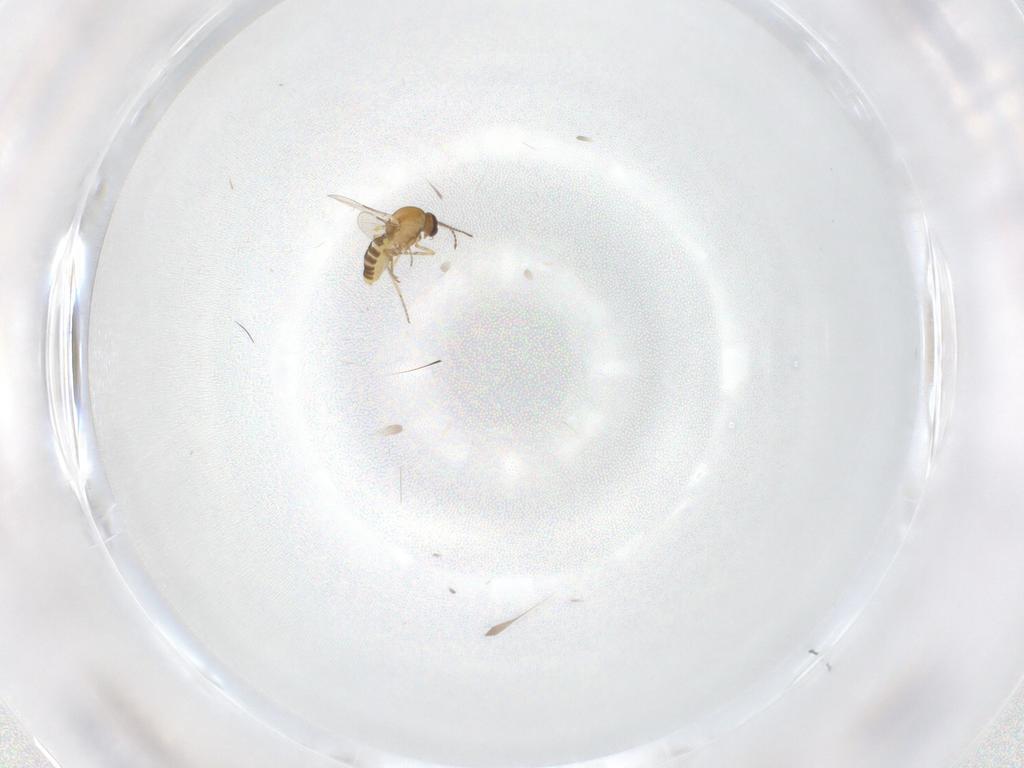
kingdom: Animalia
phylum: Arthropoda
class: Insecta
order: Diptera
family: Ceratopogonidae
